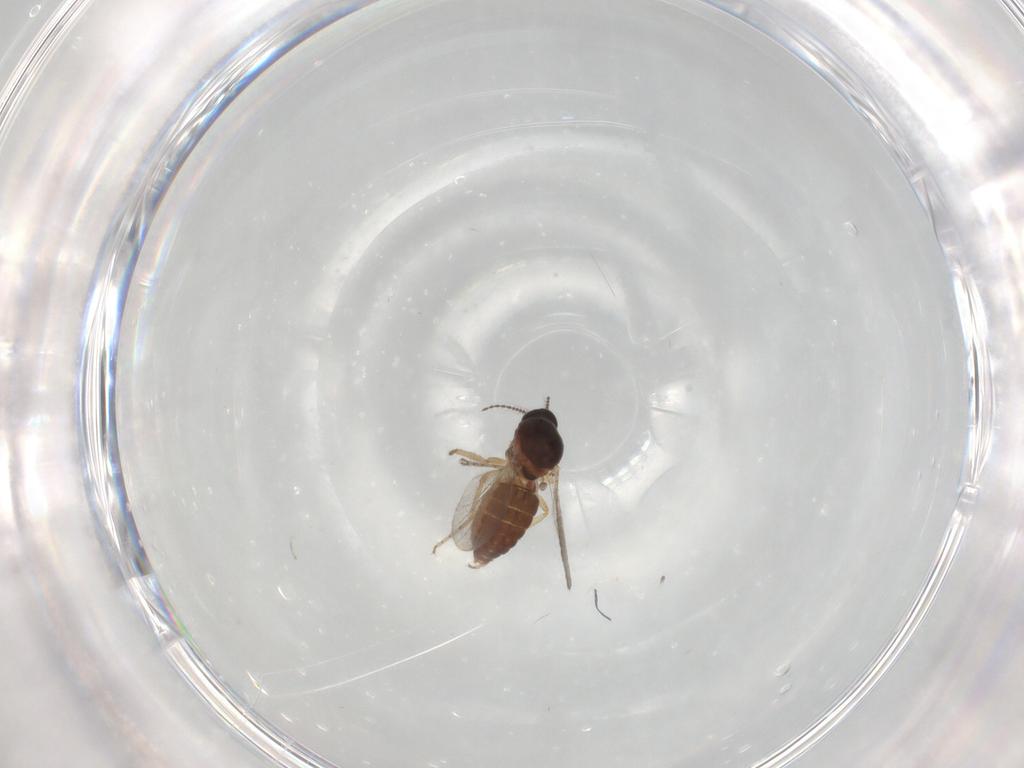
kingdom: Animalia
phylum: Arthropoda
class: Insecta
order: Diptera
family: Ceratopogonidae
